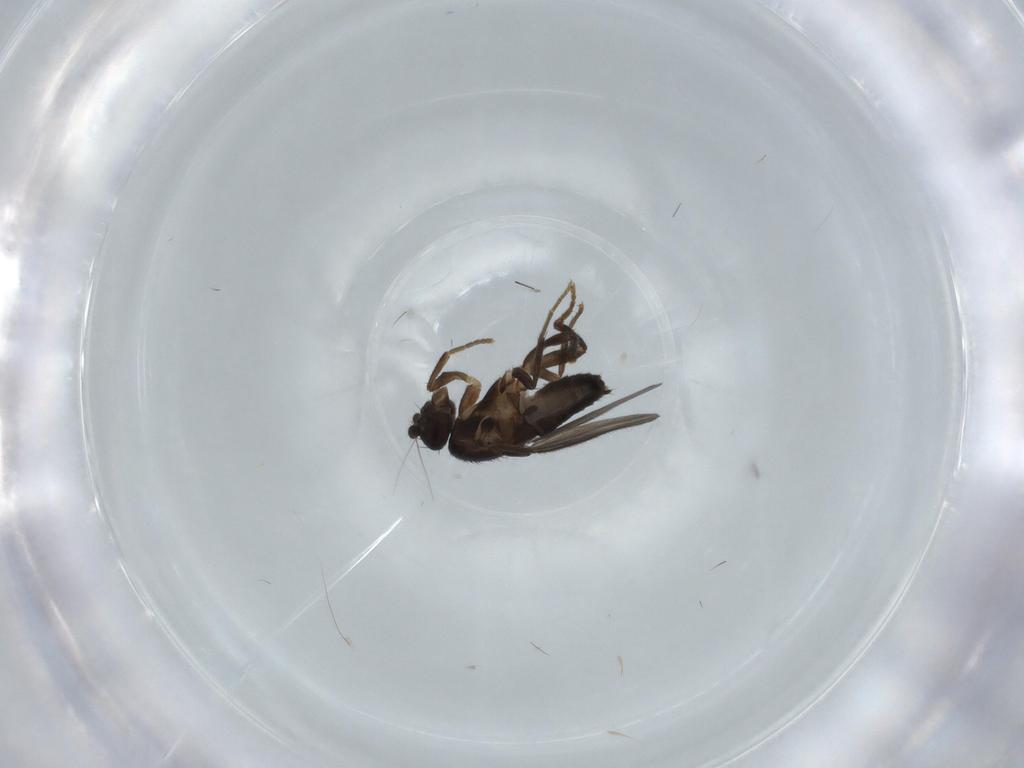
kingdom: Animalia
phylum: Arthropoda
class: Insecta
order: Diptera
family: Sphaeroceridae
